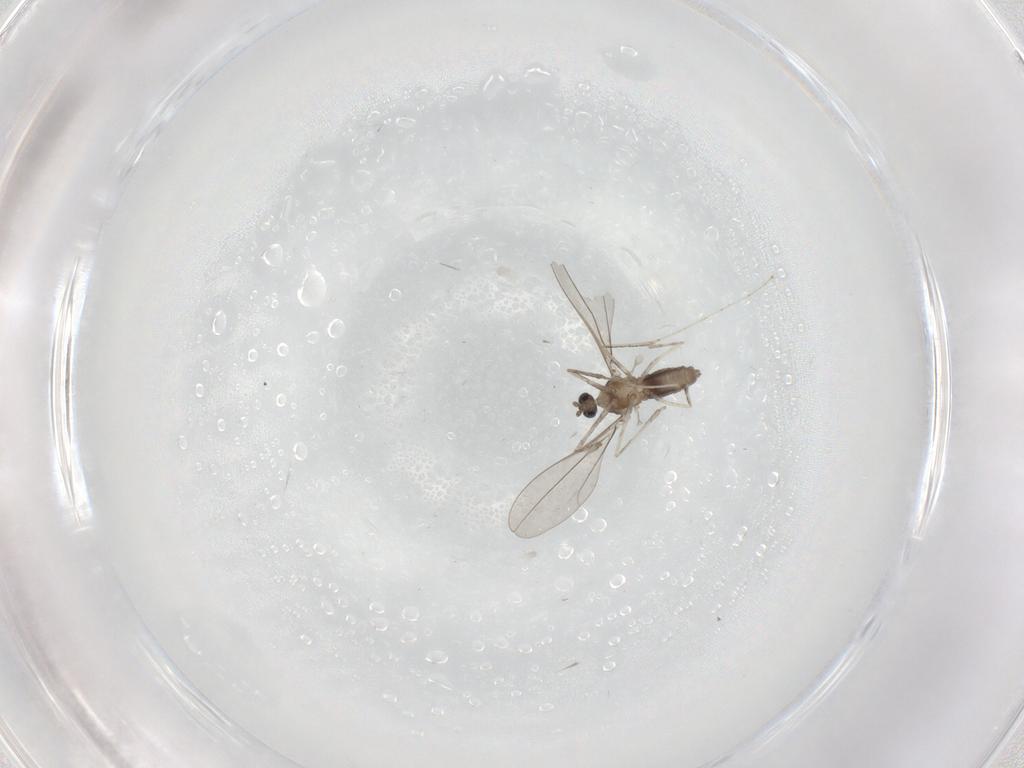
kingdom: Animalia
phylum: Arthropoda
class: Insecta
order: Diptera
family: Cecidomyiidae
